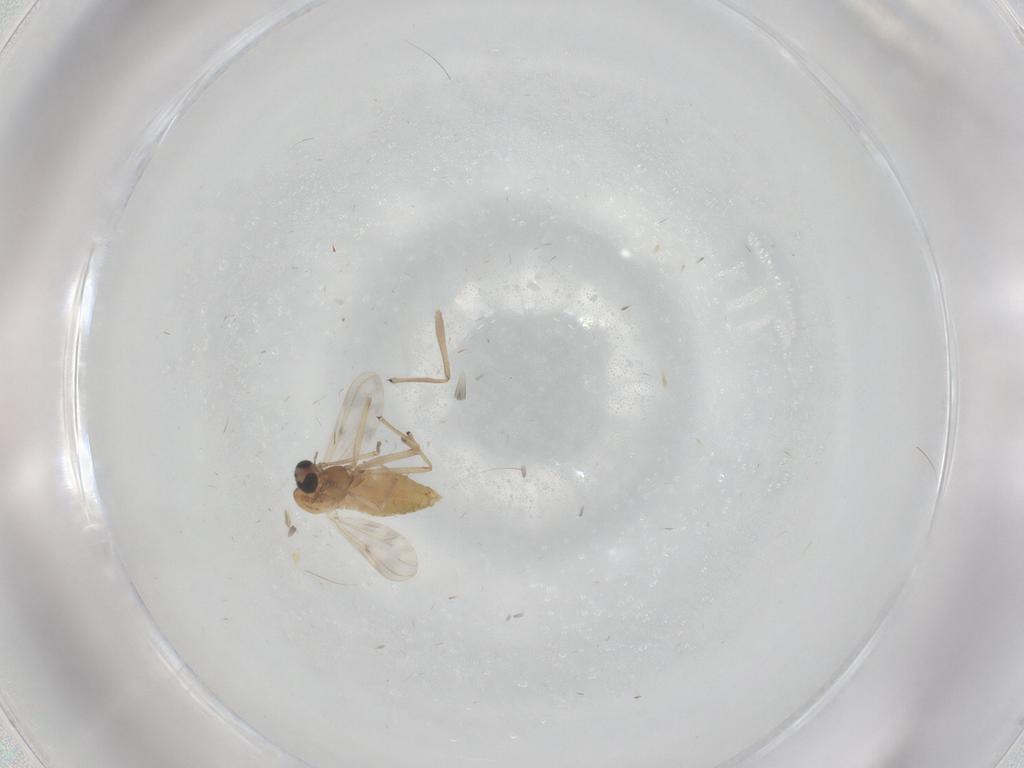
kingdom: Animalia
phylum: Arthropoda
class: Insecta
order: Diptera
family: Chironomidae
